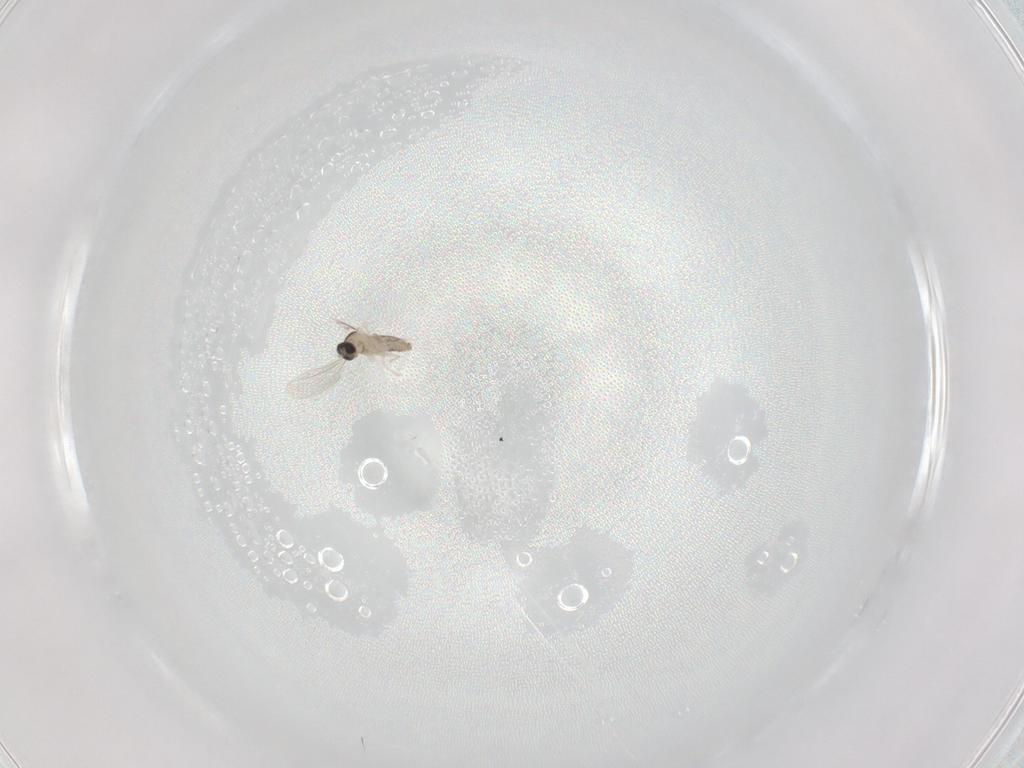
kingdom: Animalia
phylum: Arthropoda
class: Insecta
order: Diptera
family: Cecidomyiidae
